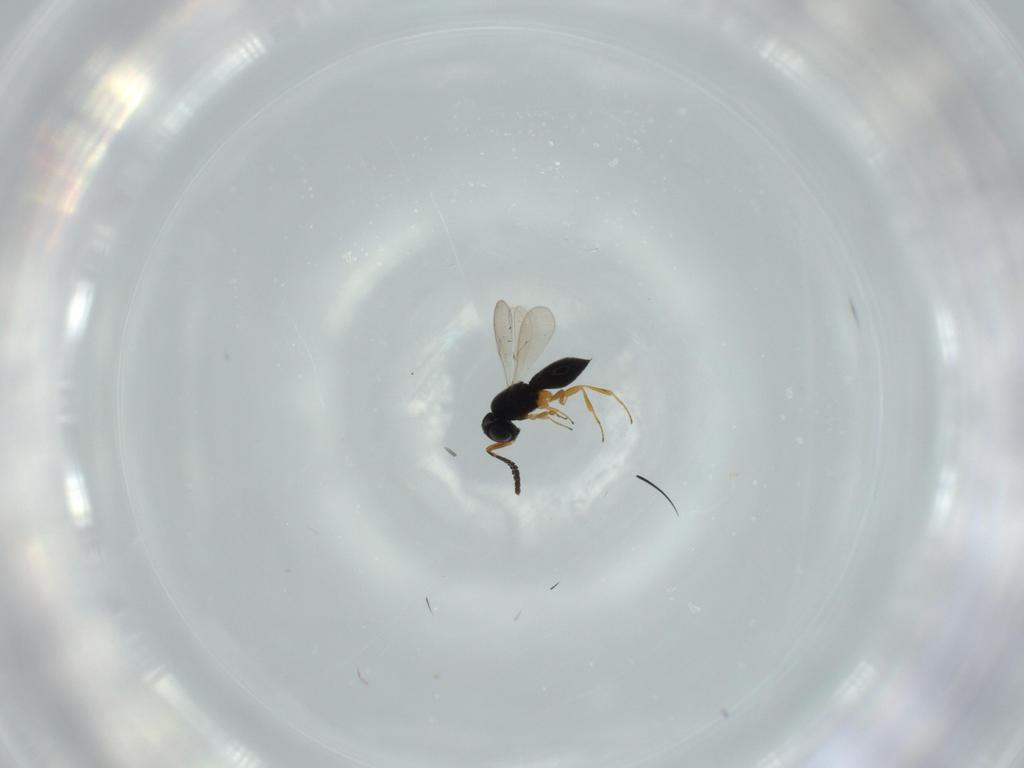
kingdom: Animalia
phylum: Arthropoda
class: Insecta
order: Hymenoptera
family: Scelionidae
